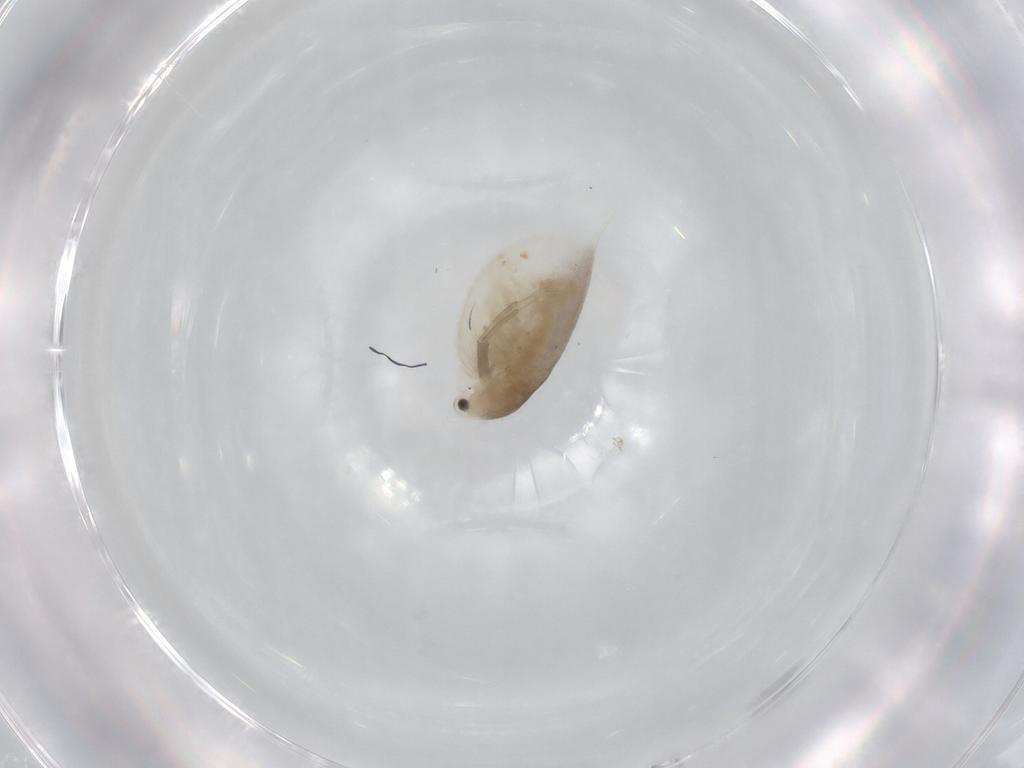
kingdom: Animalia
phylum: Arthropoda
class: Branchiopoda
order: Diplostraca
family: Daphniidae
